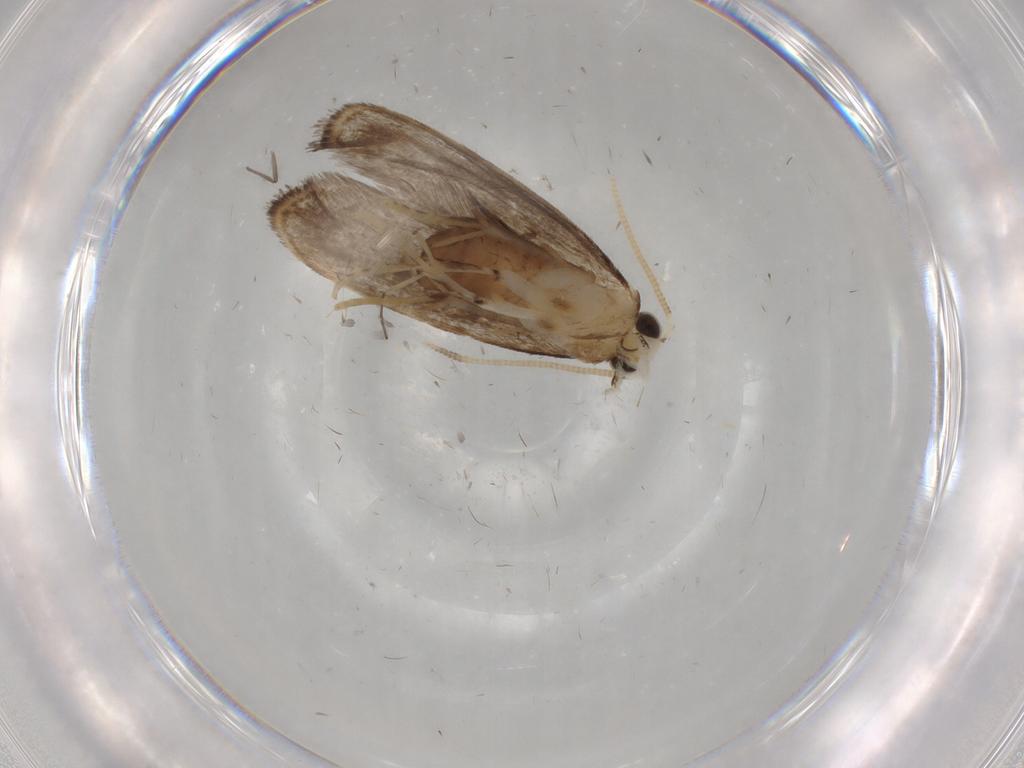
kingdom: Animalia
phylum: Arthropoda
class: Insecta
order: Lepidoptera
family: Dryadaulidae
